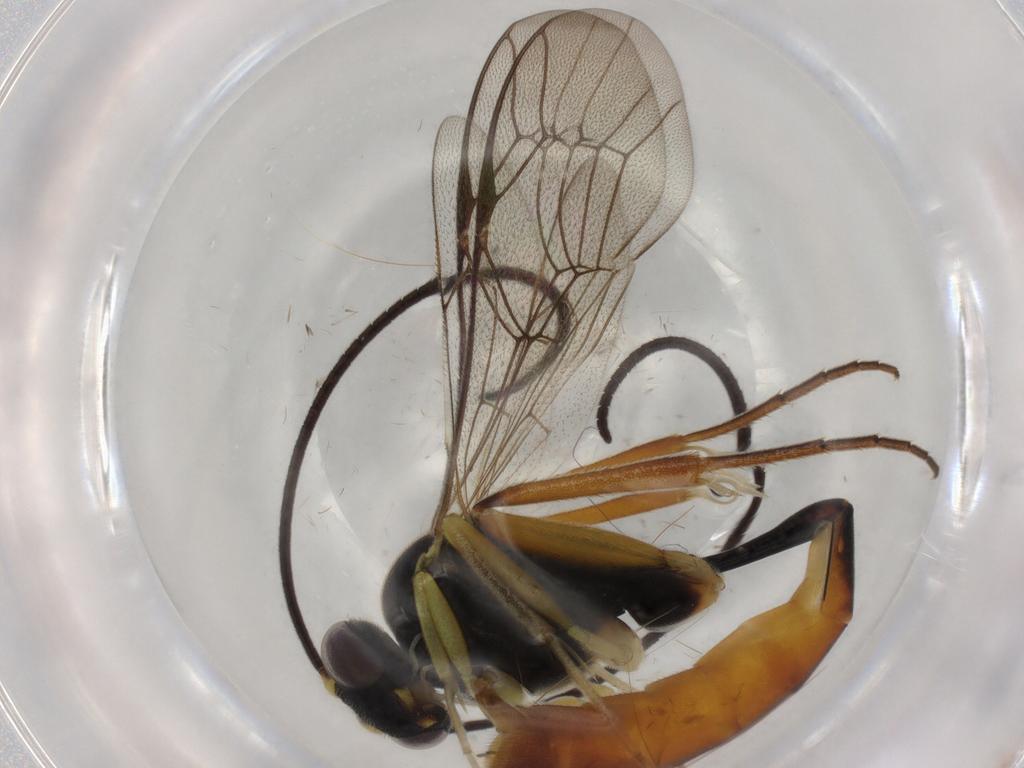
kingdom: Animalia
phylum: Arthropoda
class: Insecta
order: Hymenoptera
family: Ichneumonidae
